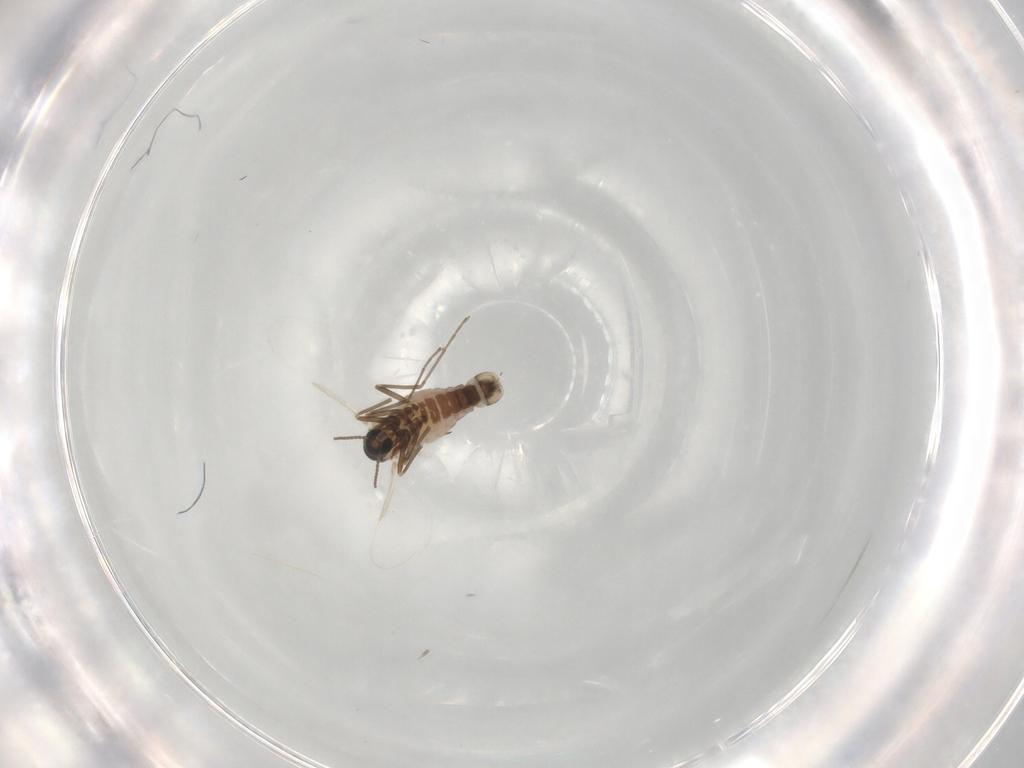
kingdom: Animalia
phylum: Arthropoda
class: Insecta
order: Diptera
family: Cecidomyiidae
